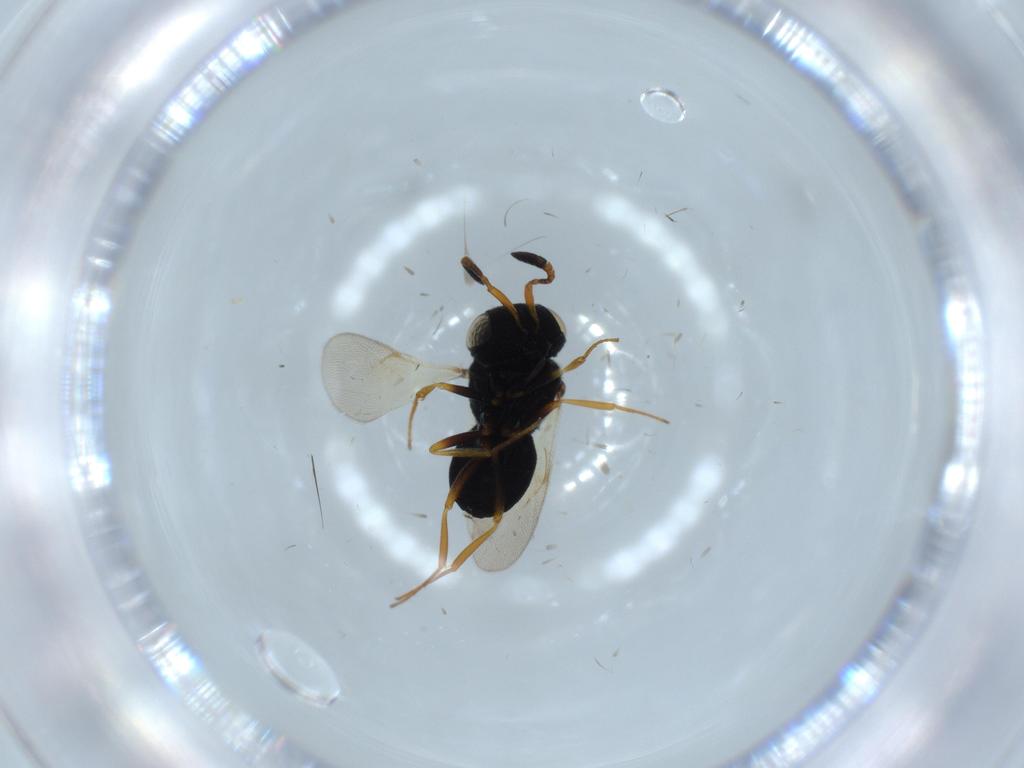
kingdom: Animalia
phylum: Arthropoda
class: Insecta
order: Hymenoptera
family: Scelionidae
